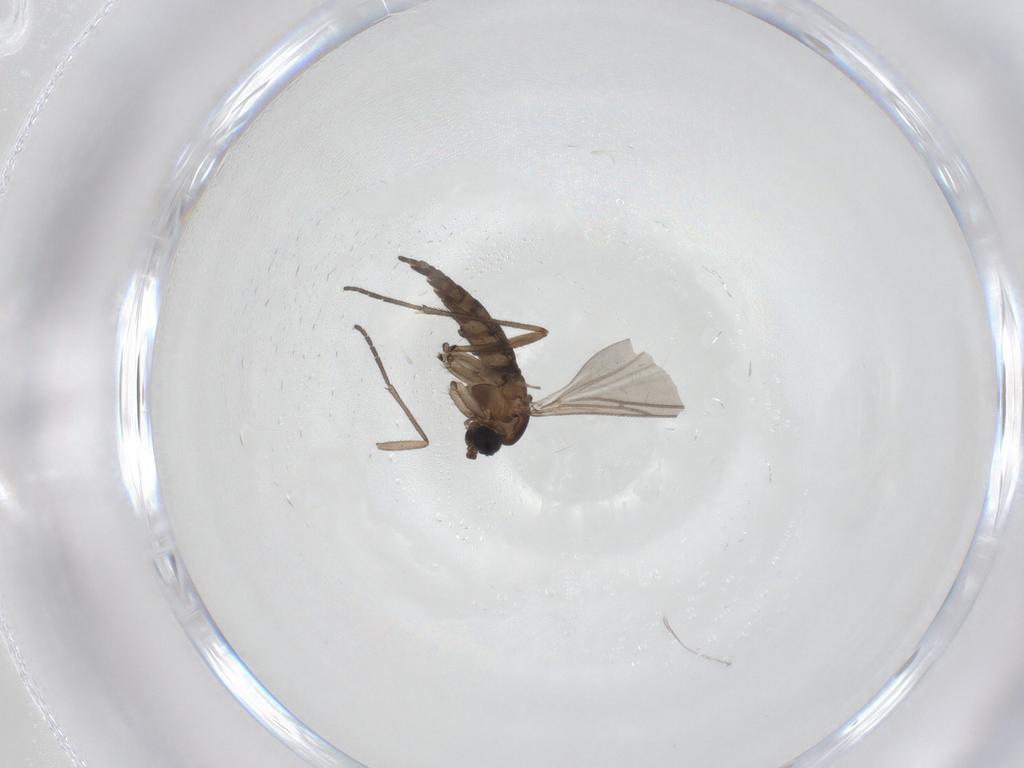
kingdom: Animalia
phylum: Arthropoda
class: Insecta
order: Diptera
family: Sciaridae
